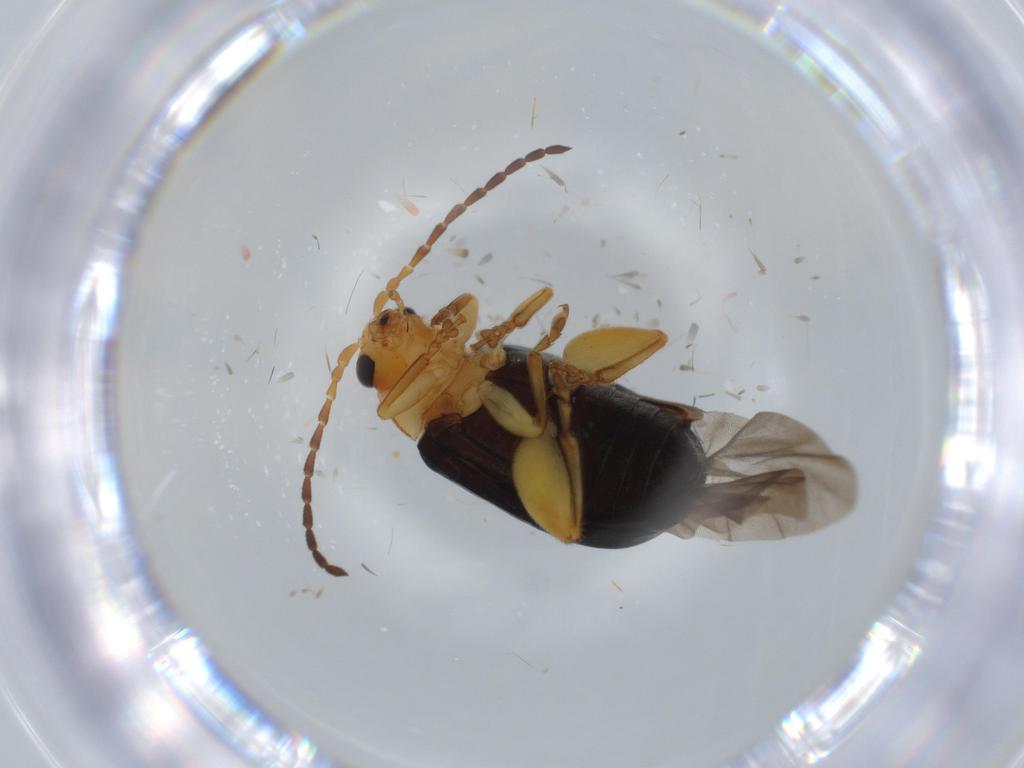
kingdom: Animalia
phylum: Arthropoda
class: Insecta
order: Coleoptera
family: Chrysomelidae
